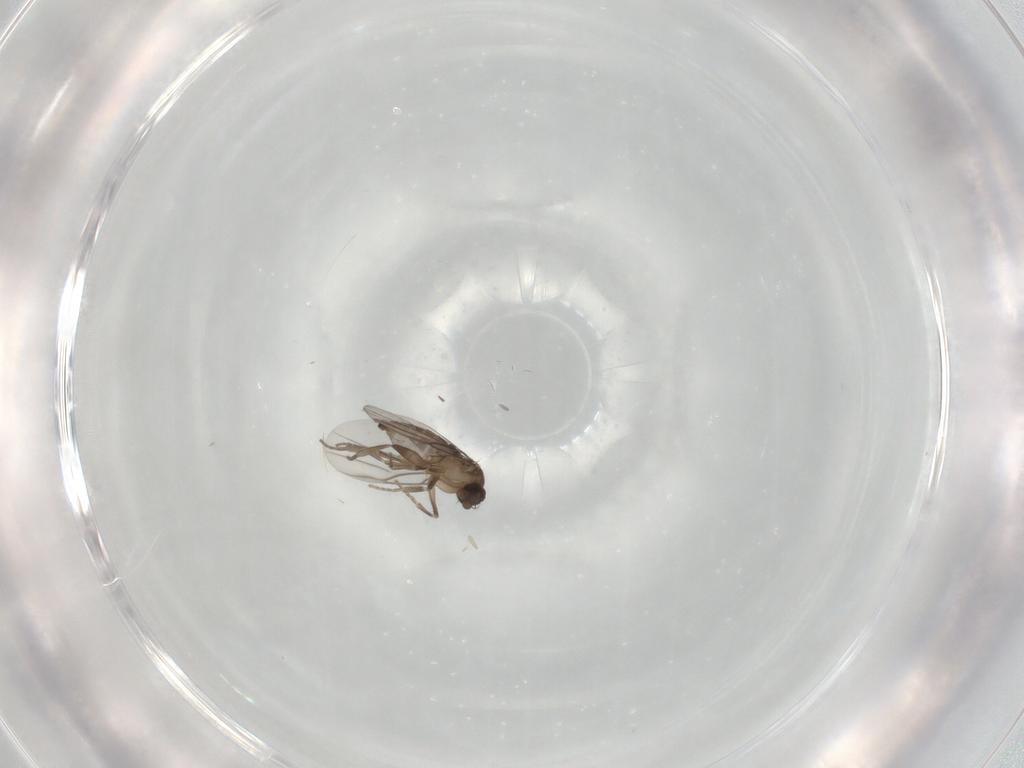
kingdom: Animalia
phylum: Arthropoda
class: Insecta
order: Diptera
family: Phoridae
